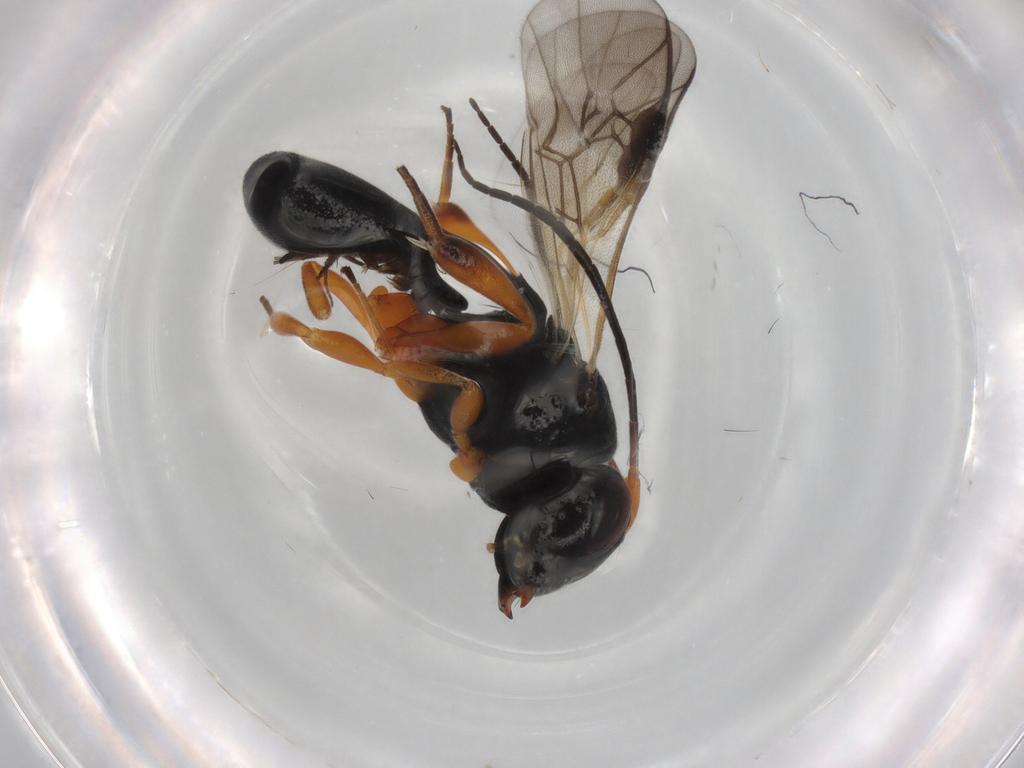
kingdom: Animalia
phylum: Arthropoda
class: Insecta
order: Hymenoptera
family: Braconidae
